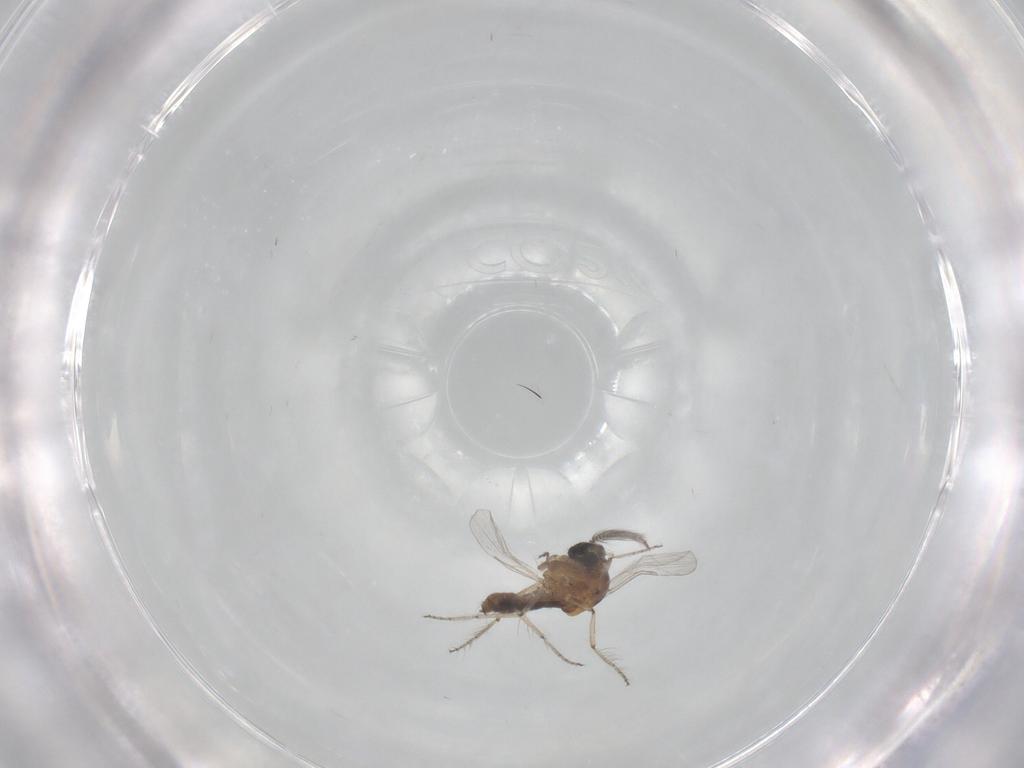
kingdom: Animalia
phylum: Arthropoda
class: Insecta
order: Diptera
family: Ceratopogonidae
